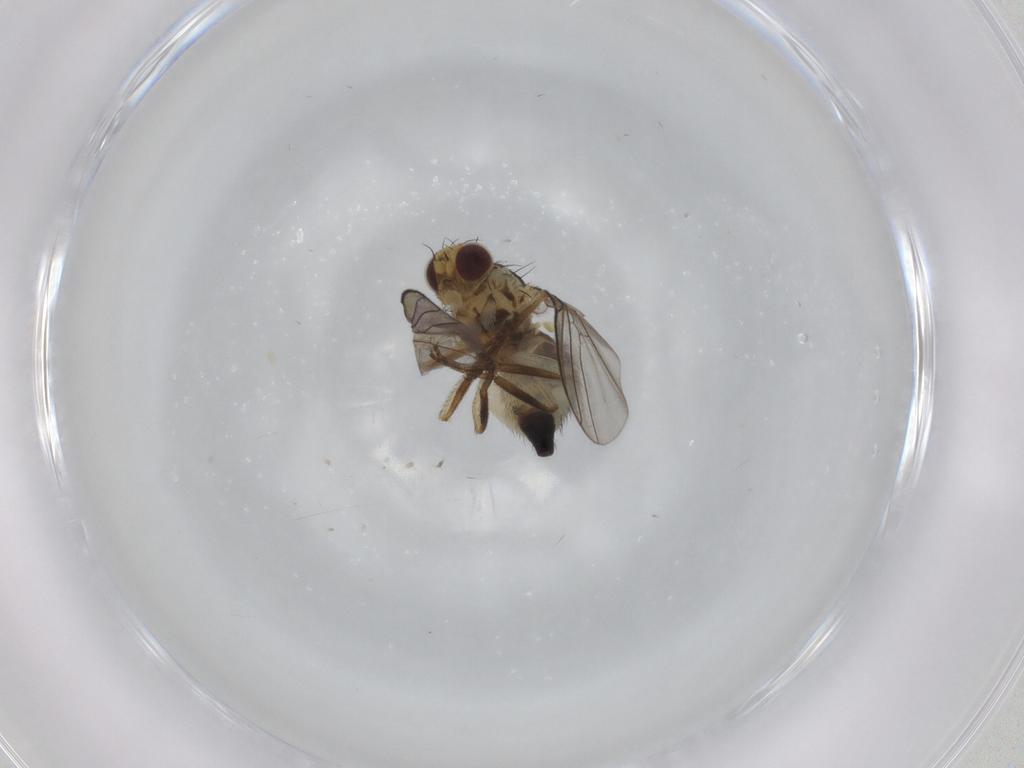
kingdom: Animalia
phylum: Arthropoda
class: Insecta
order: Diptera
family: Agromyzidae
